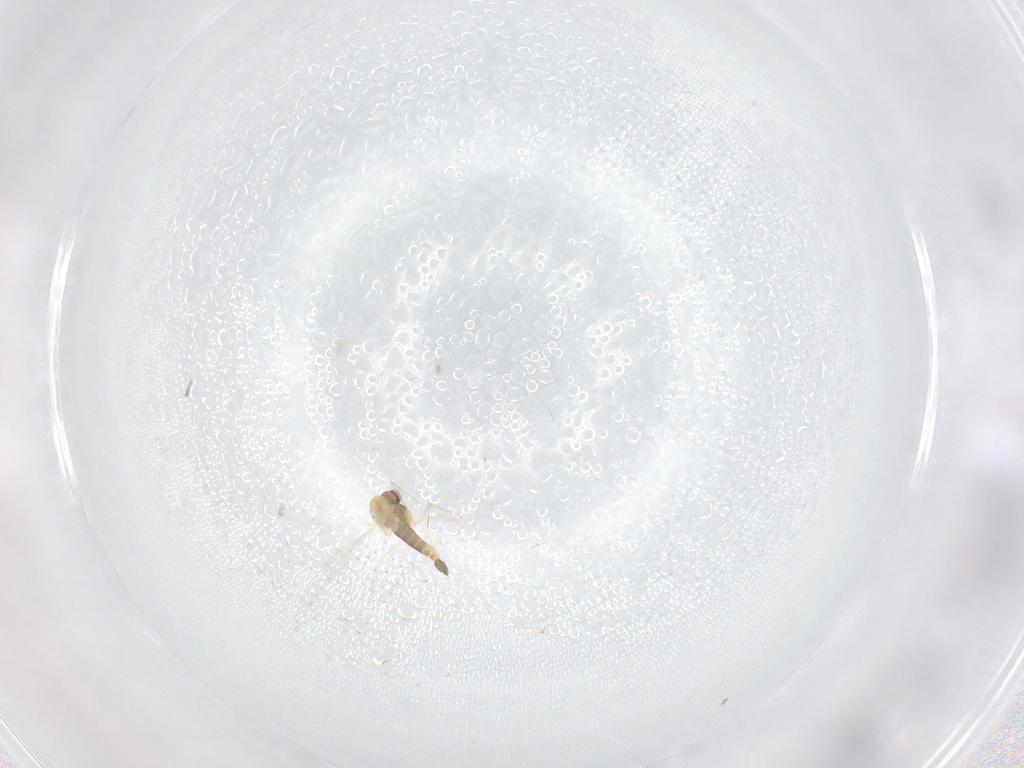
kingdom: Animalia
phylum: Arthropoda
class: Insecta
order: Diptera
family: Chironomidae
